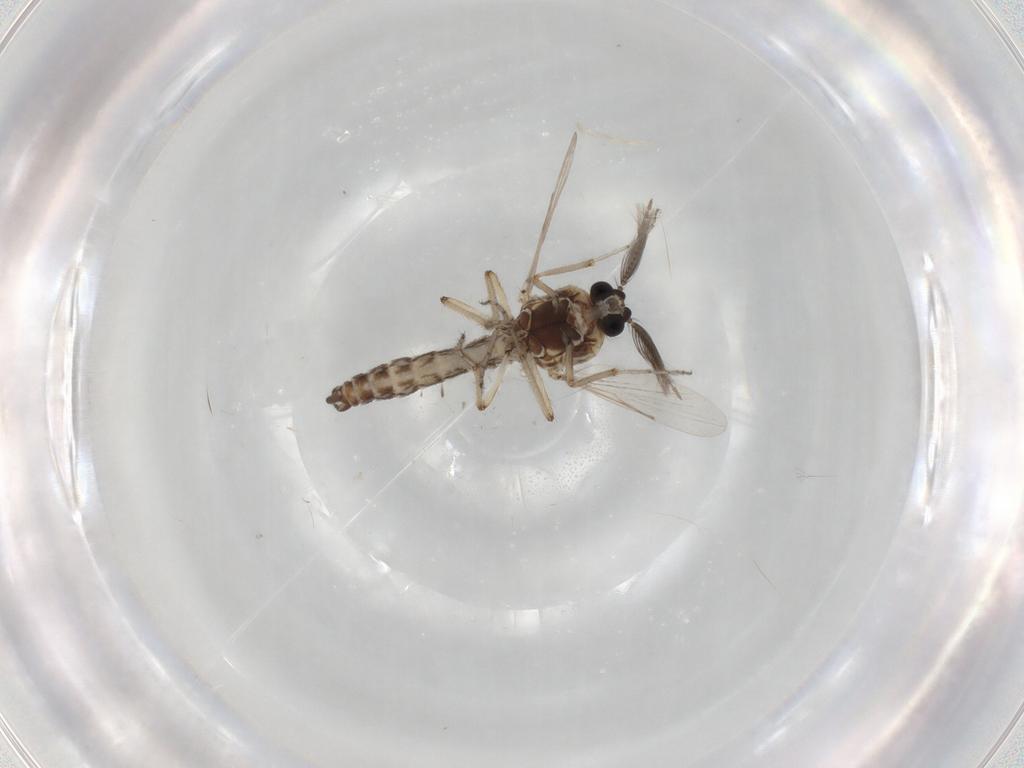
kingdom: Animalia
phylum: Arthropoda
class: Insecta
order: Diptera
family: Ceratopogonidae
